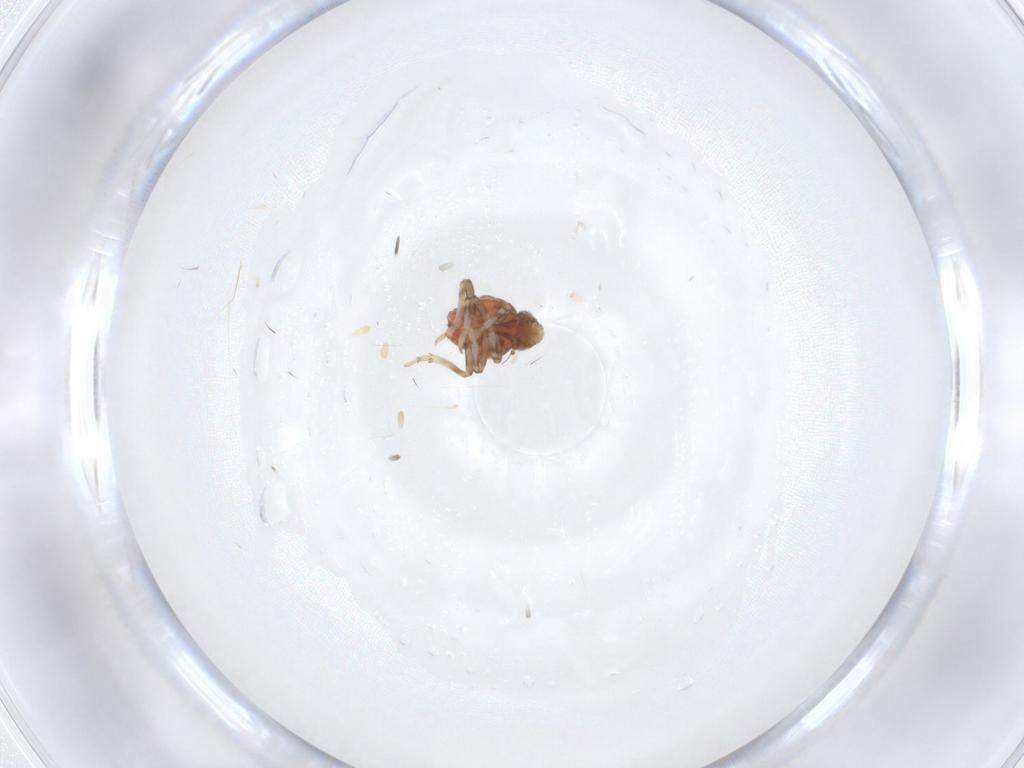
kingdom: Animalia
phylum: Arthropoda
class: Insecta
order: Hemiptera
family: Issidae
